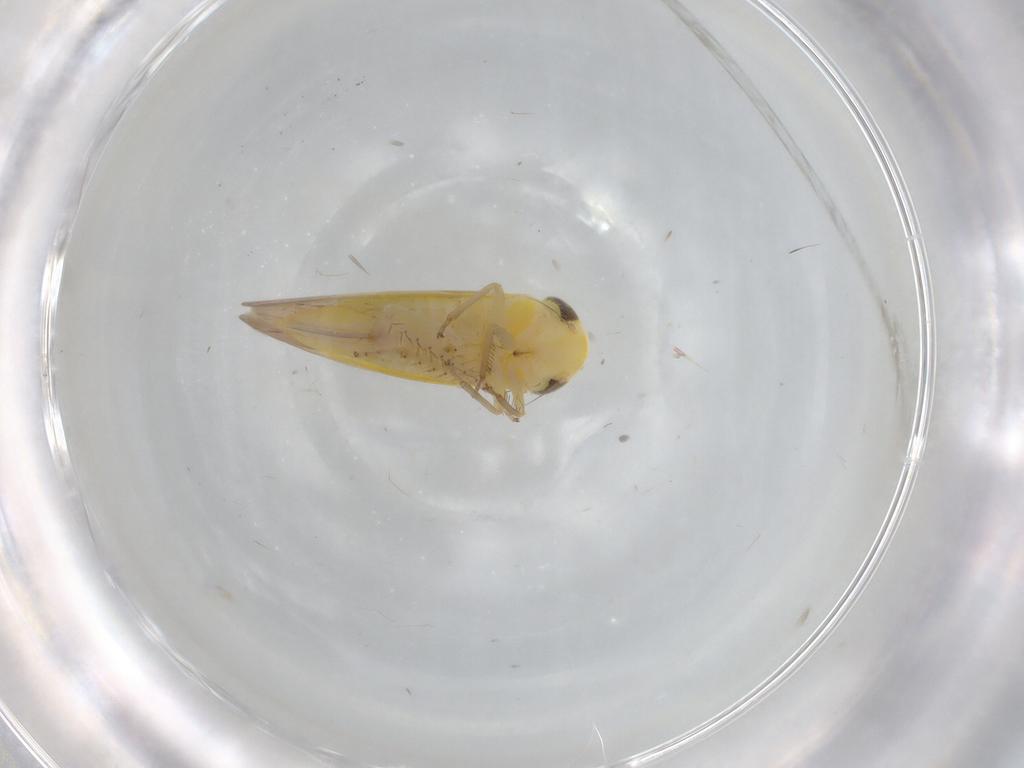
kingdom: Animalia
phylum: Arthropoda
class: Insecta
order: Hemiptera
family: Cicadellidae
